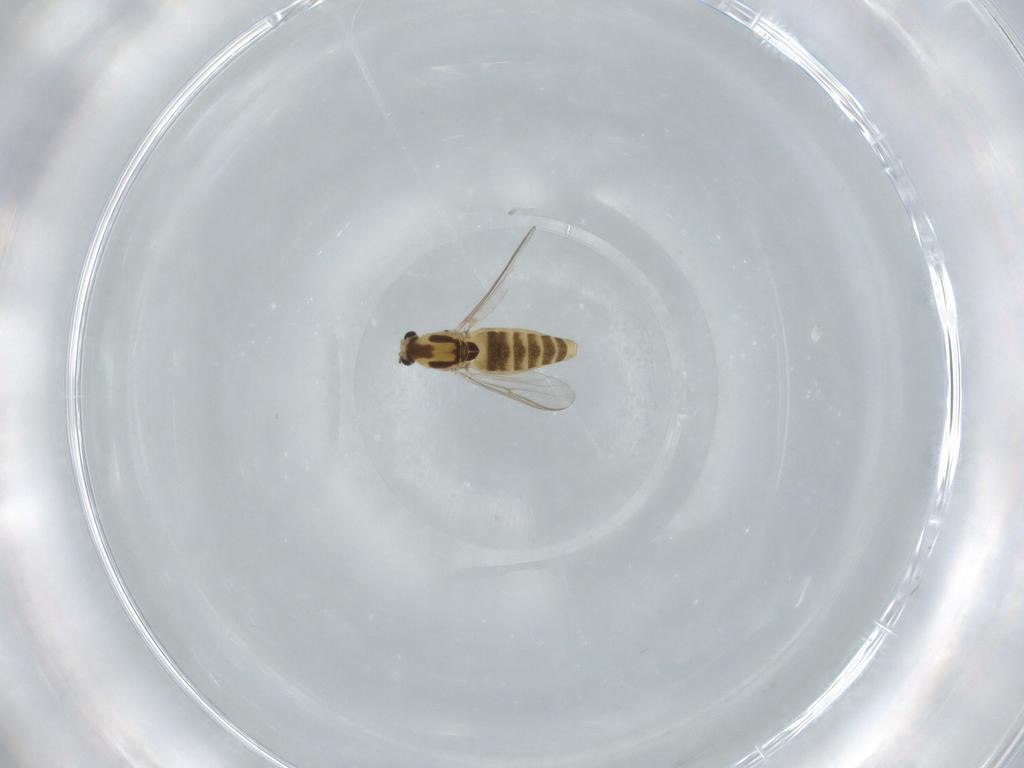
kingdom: Animalia
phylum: Arthropoda
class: Insecta
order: Diptera
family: Chironomidae
